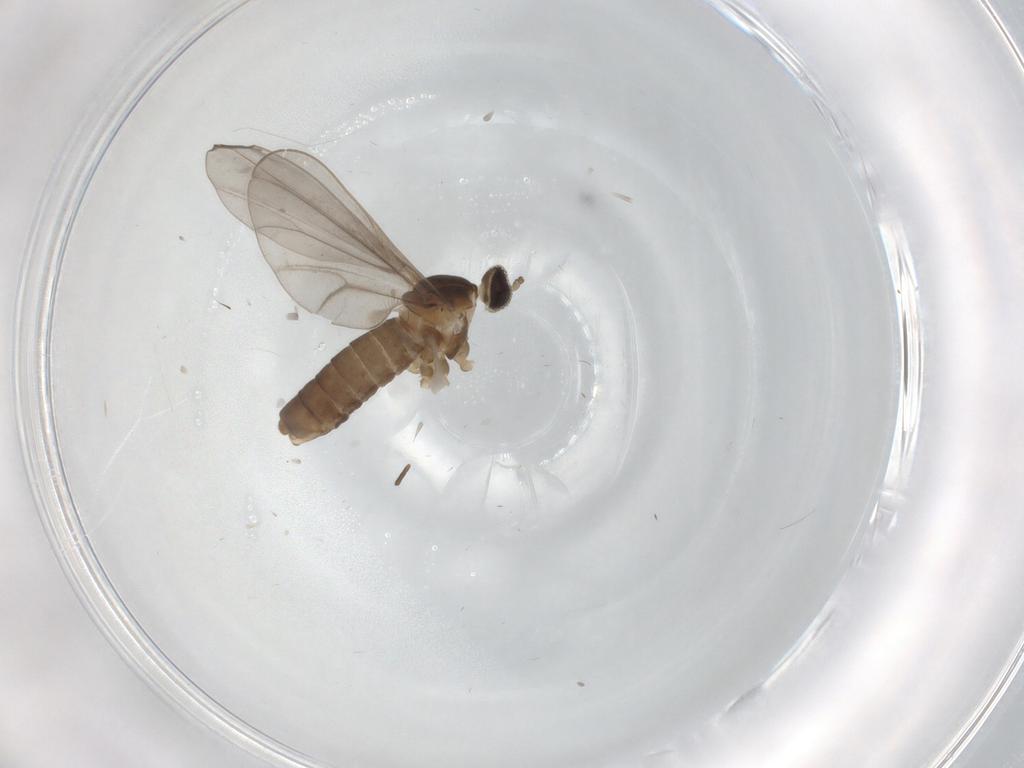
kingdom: Animalia
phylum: Arthropoda
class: Insecta
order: Diptera
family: Cecidomyiidae
